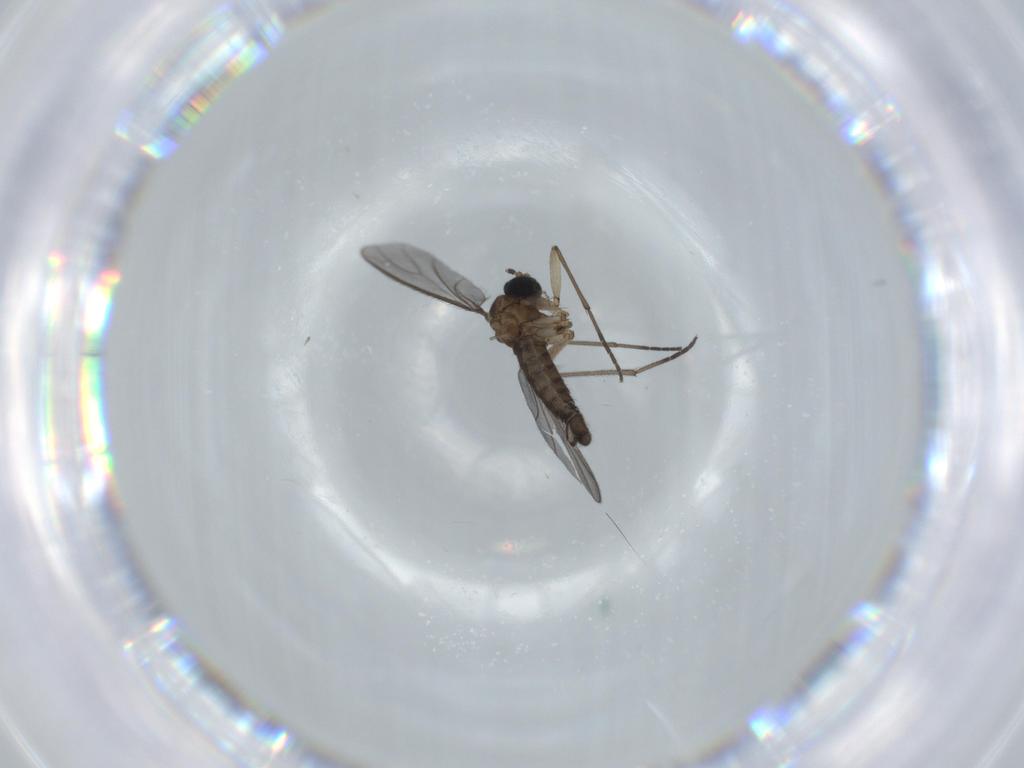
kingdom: Animalia
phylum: Arthropoda
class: Insecta
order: Diptera
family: Sciaridae
